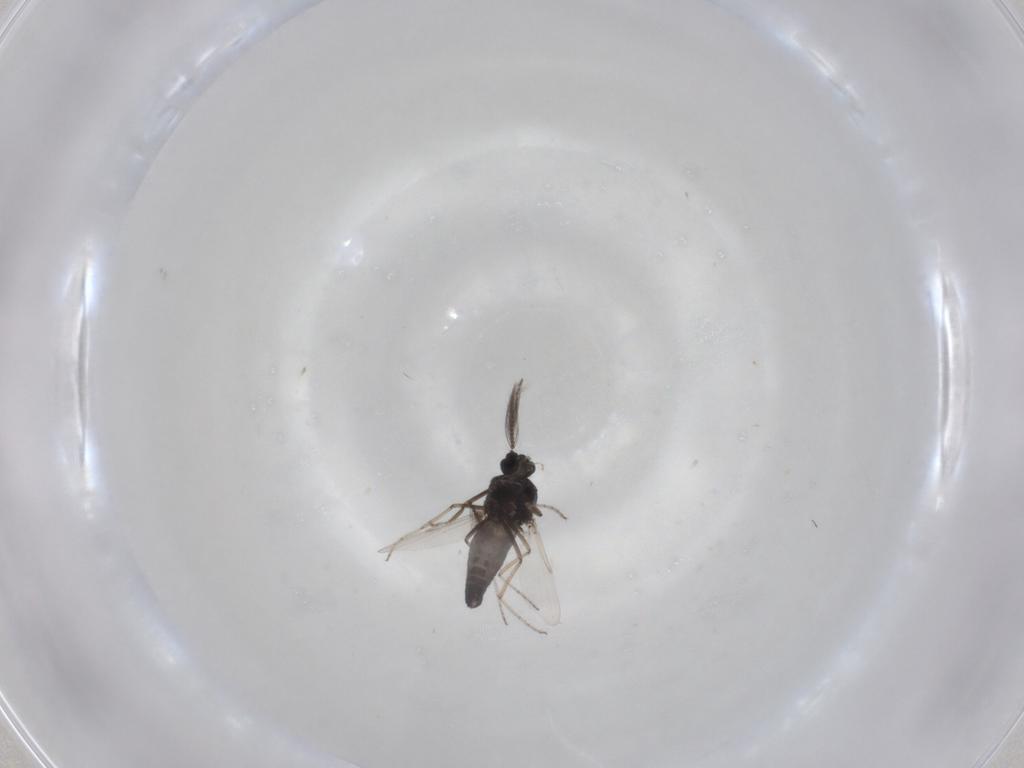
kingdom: Animalia
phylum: Arthropoda
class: Insecta
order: Diptera
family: Ceratopogonidae
